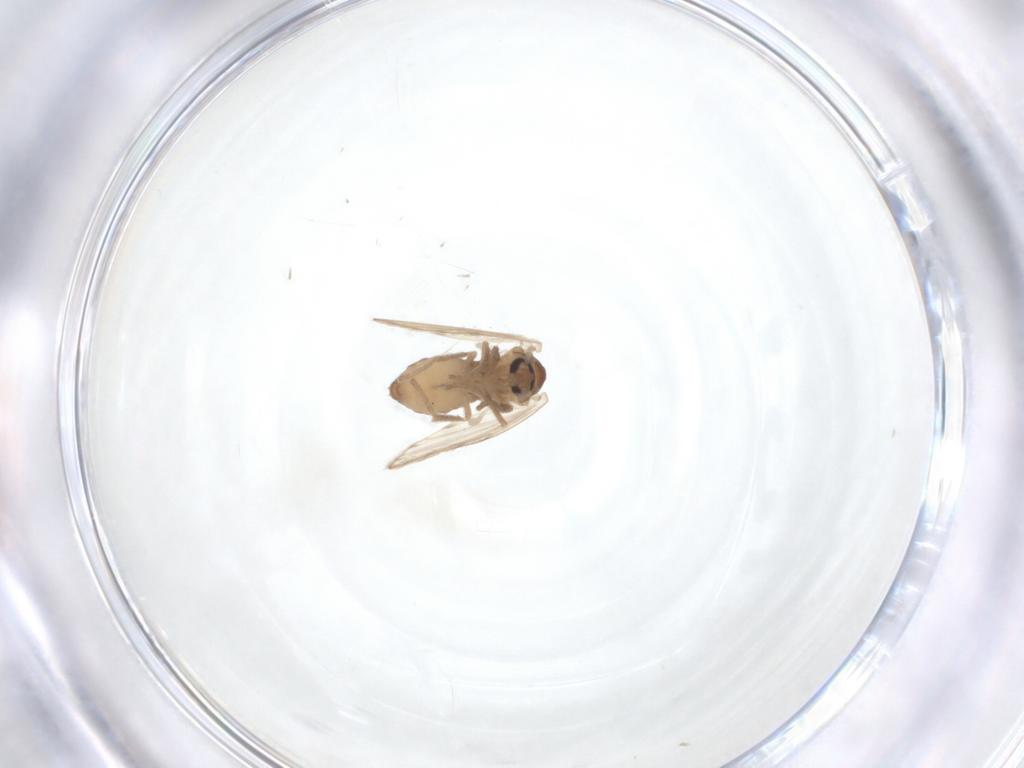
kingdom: Animalia
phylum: Arthropoda
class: Insecta
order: Diptera
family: Psychodidae
